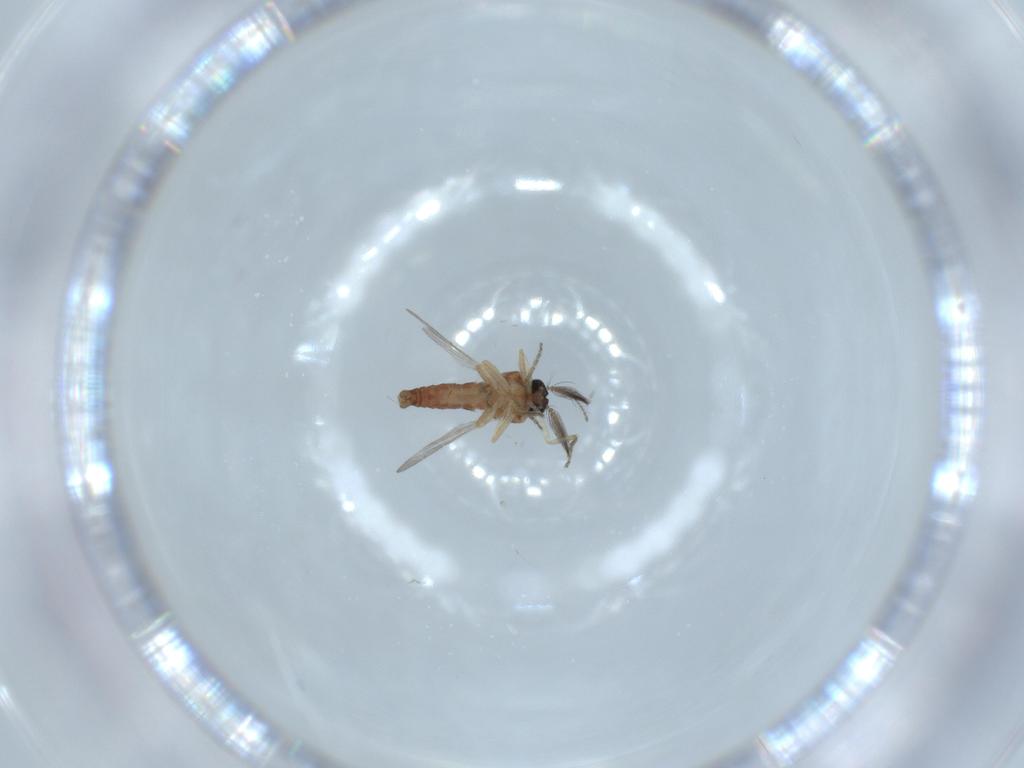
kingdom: Animalia
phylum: Arthropoda
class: Insecta
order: Diptera
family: Ceratopogonidae
